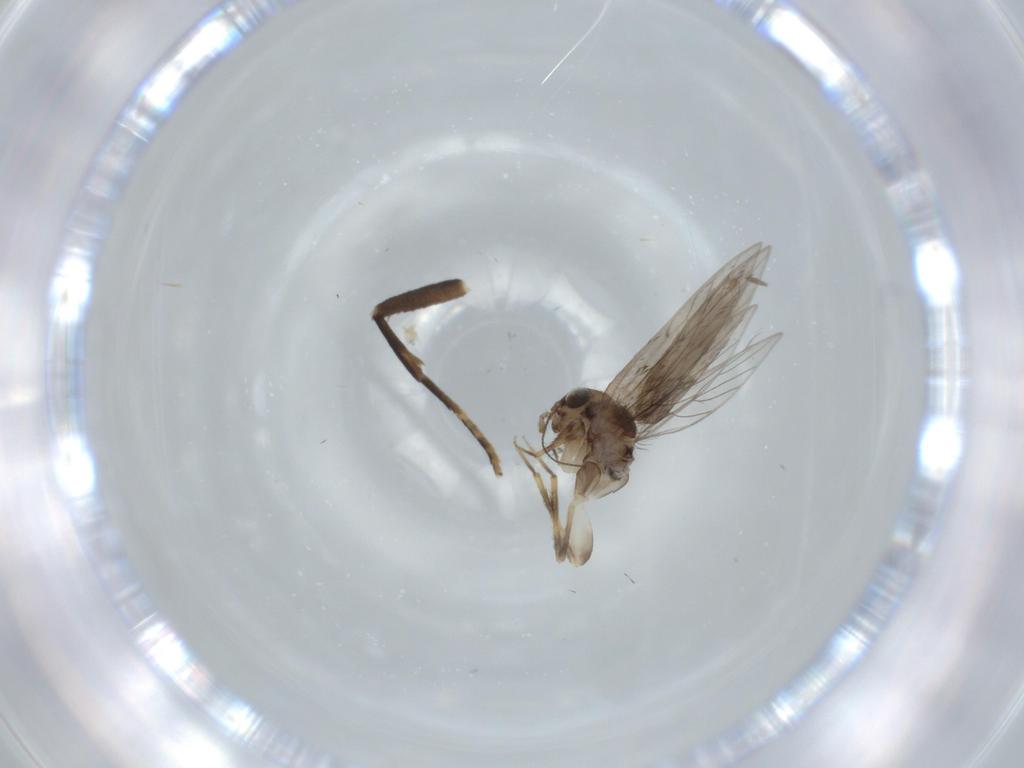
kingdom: Animalia
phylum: Arthropoda
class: Insecta
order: Psocodea
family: Lepidopsocidae
